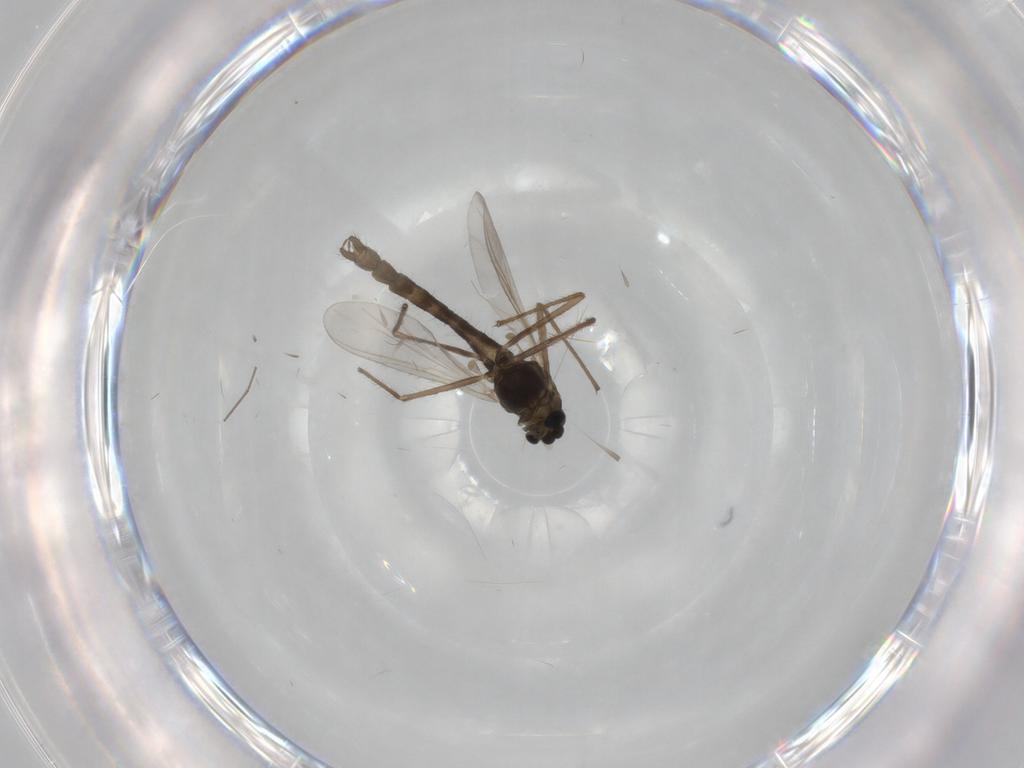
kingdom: Animalia
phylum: Arthropoda
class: Insecta
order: Diptera
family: Chironomidae
